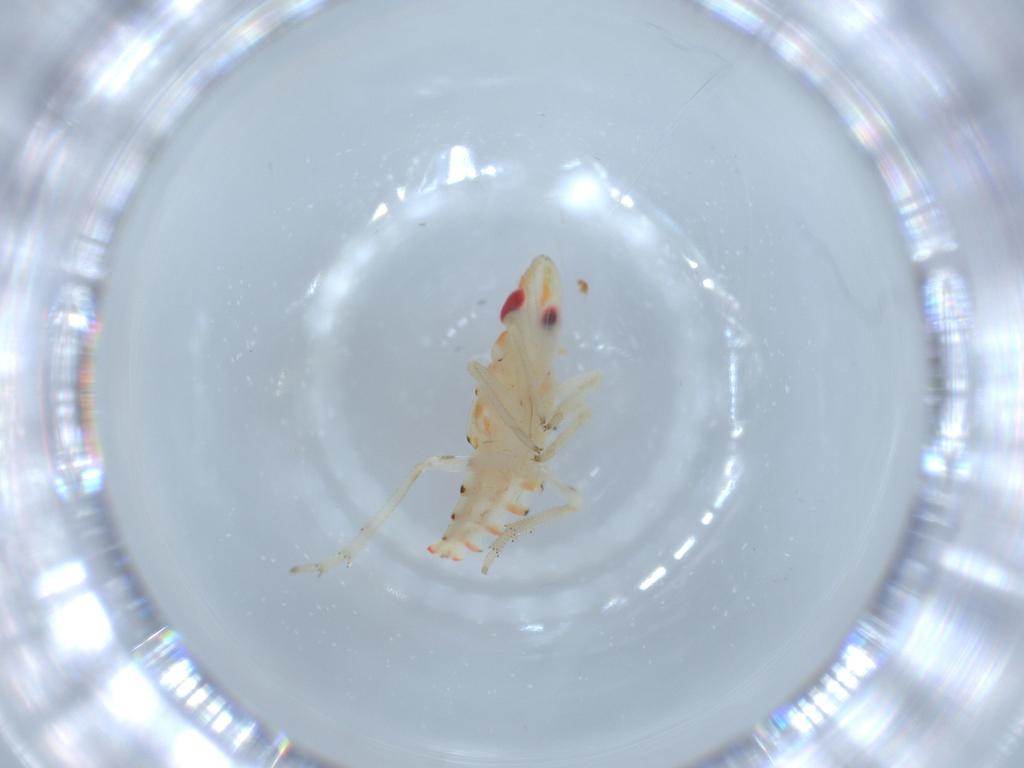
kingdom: Animalia
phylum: Arthropoda
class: Insecta
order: Hemiptera
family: Tropiduchidae
